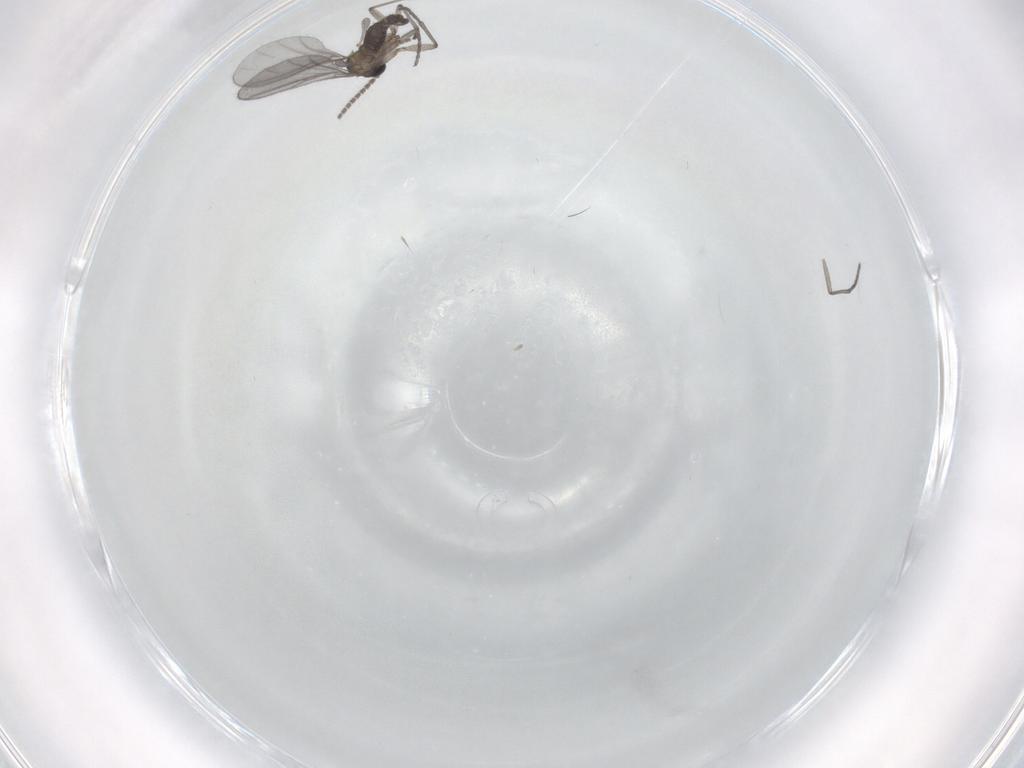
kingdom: Animalia
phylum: Arthropoda
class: Insecta
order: Diptera
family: Sciaridae
